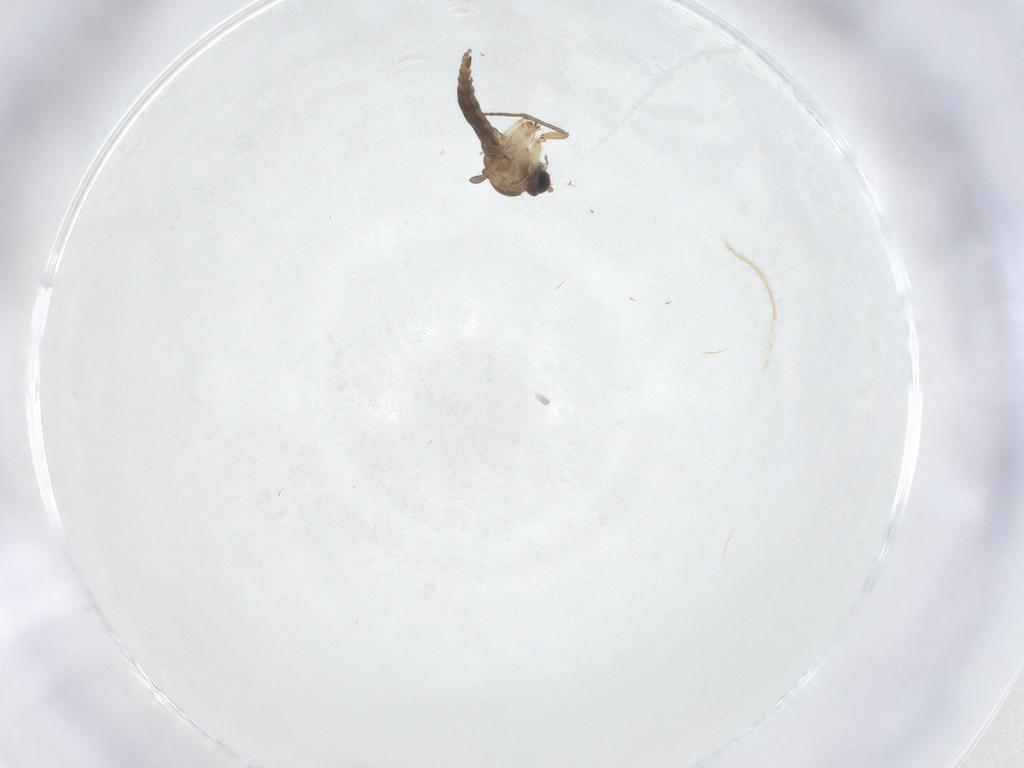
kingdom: Animalia
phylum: Arthropoda
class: Insecta
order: Diptera
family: Sciaridae
